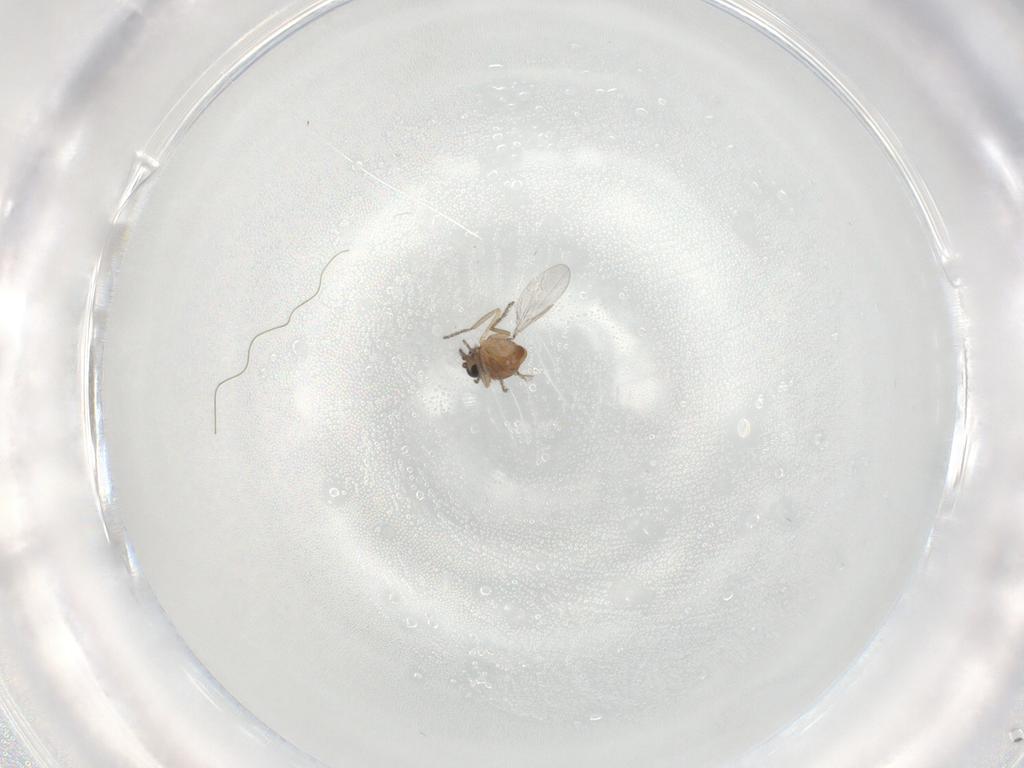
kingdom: Animalia
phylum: Arthropoda
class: Insecta
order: Diptera
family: Ceratopogonidae
